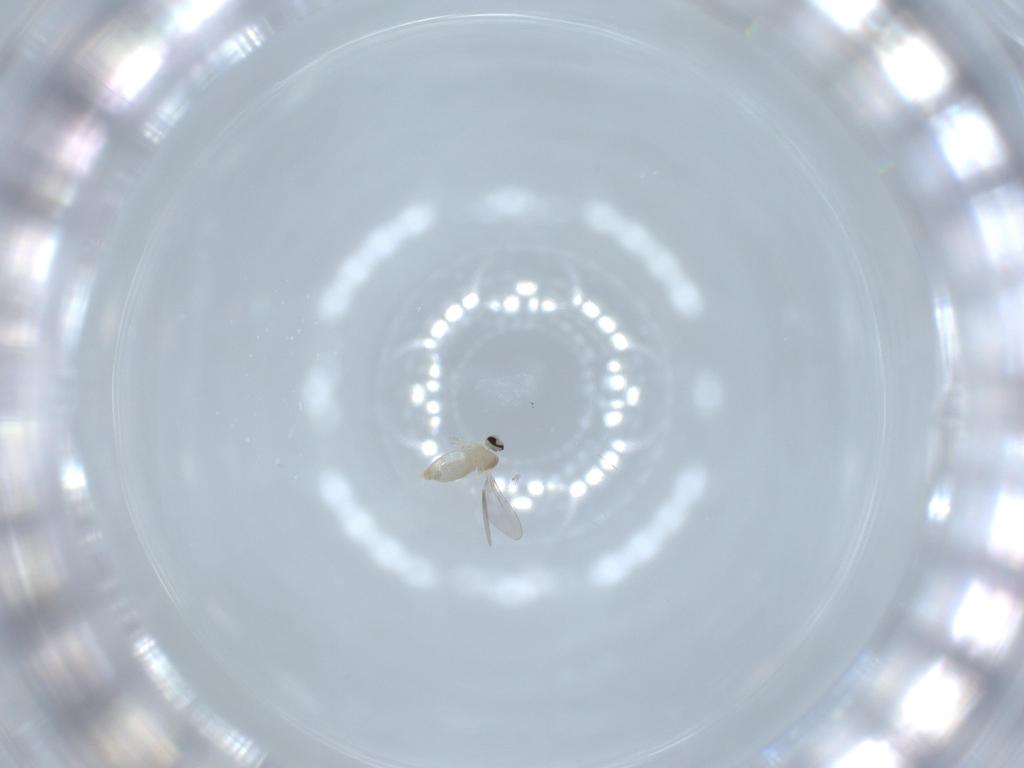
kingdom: Animalia
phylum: Arthropoda
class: Insecta
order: Diptera
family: Cecidomyiidae
